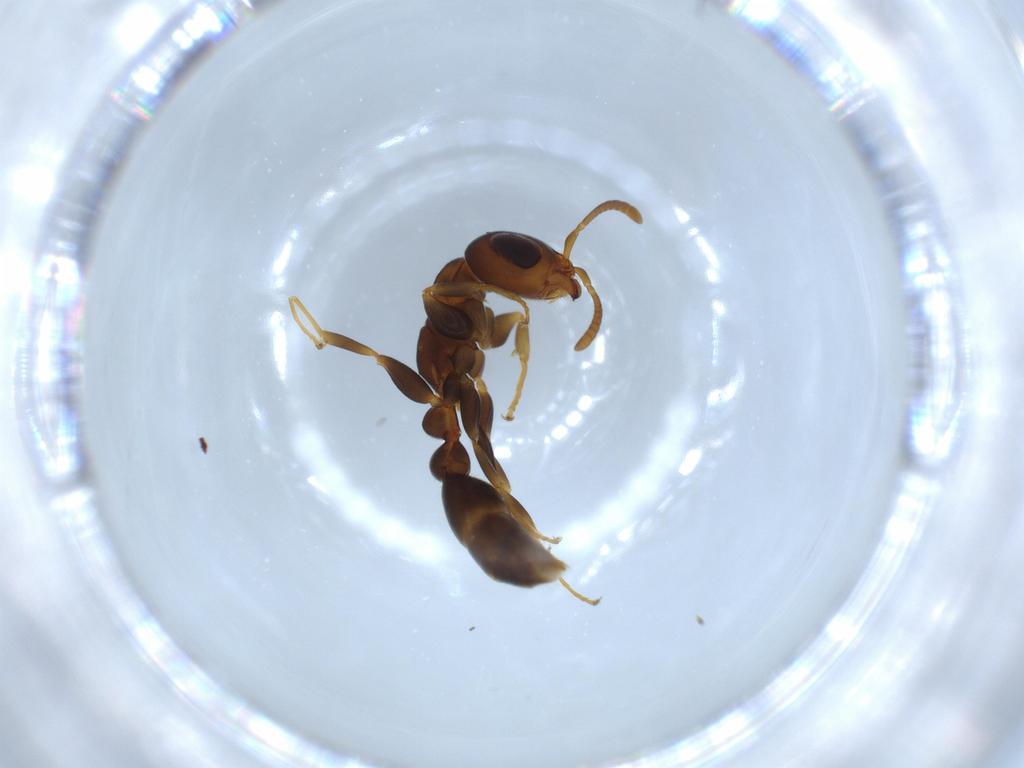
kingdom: Animalia
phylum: Arthropoda
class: Insecta
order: Hymenoptera
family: Formicidae
